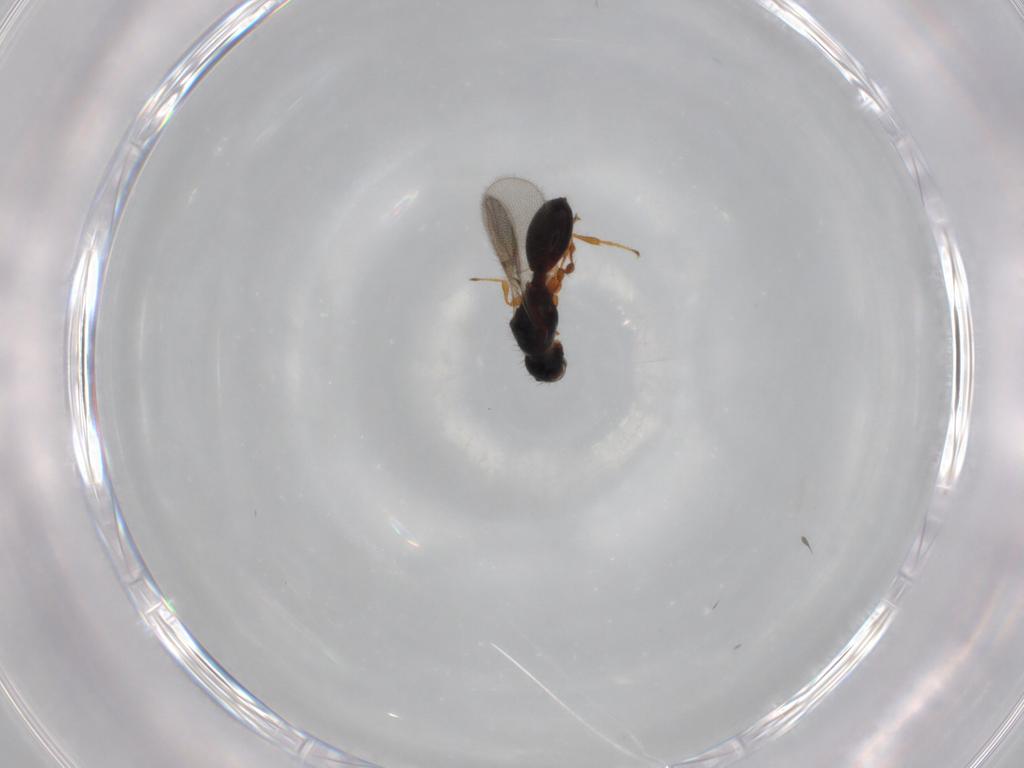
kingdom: Animalia
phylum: Arthropoda
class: Insecta
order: Hymenoptera
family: Diapriidae
